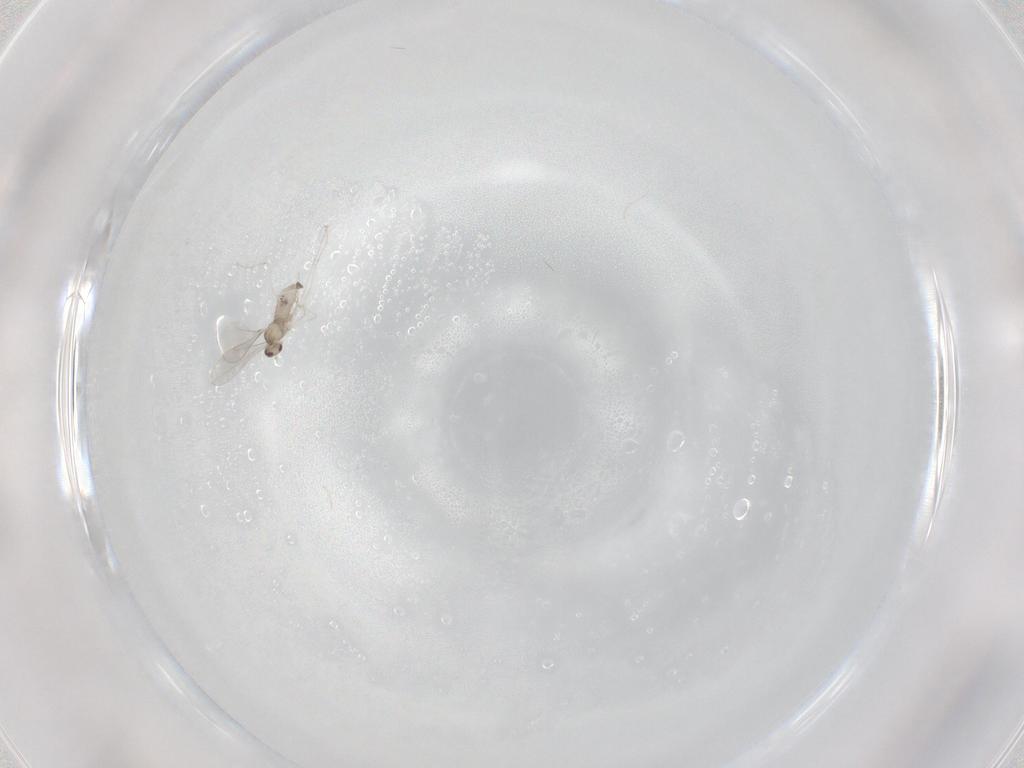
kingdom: Animalia
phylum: Arthropoda
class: Insecta
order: Diptera
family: Cecidomyiidae
